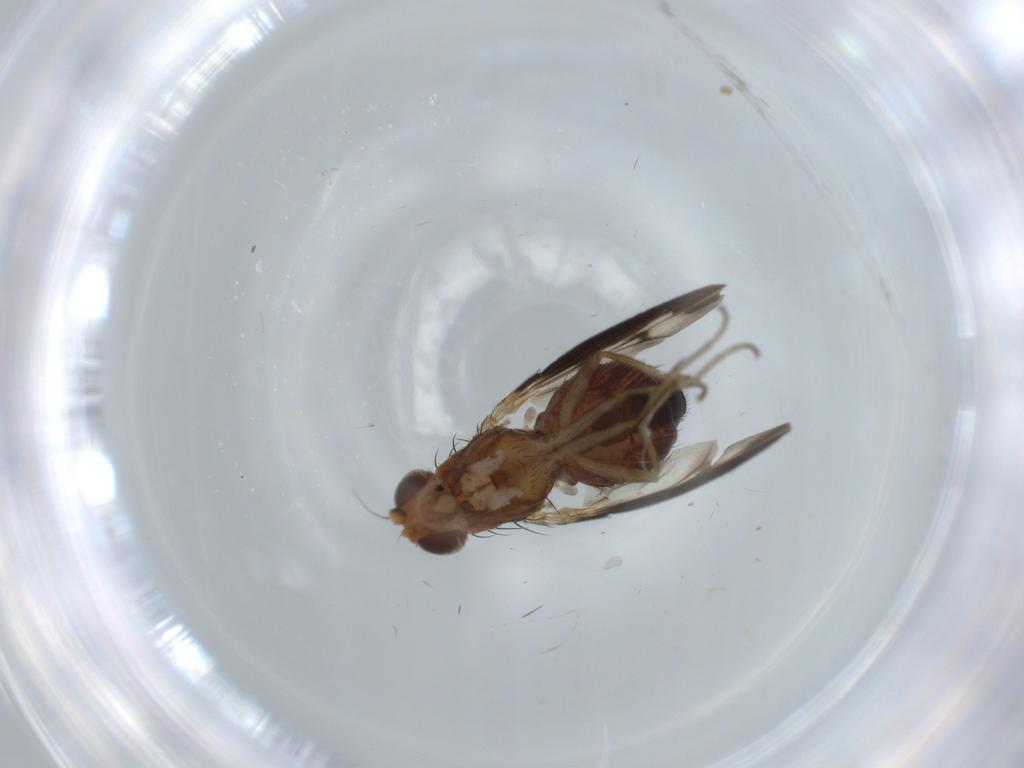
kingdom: Animalia
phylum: Arthropoda
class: Insecta
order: Diptera
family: Heleomyzidae
